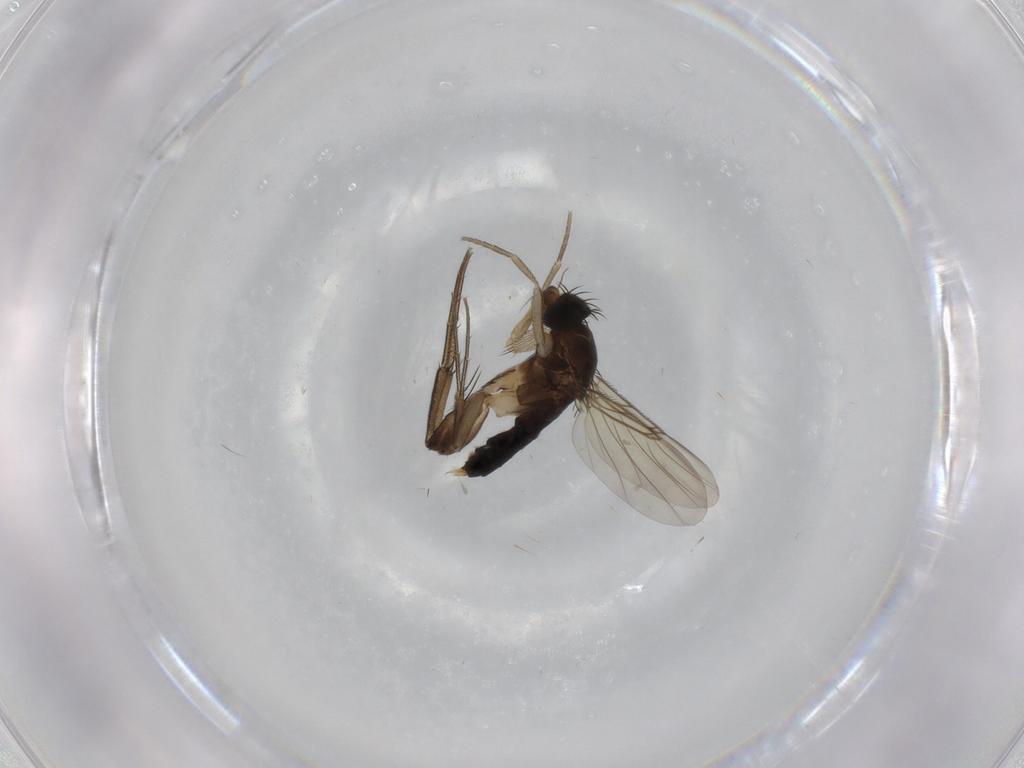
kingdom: Animalia
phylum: Arthropoda
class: Insecta
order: Diptera
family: Phoridae
